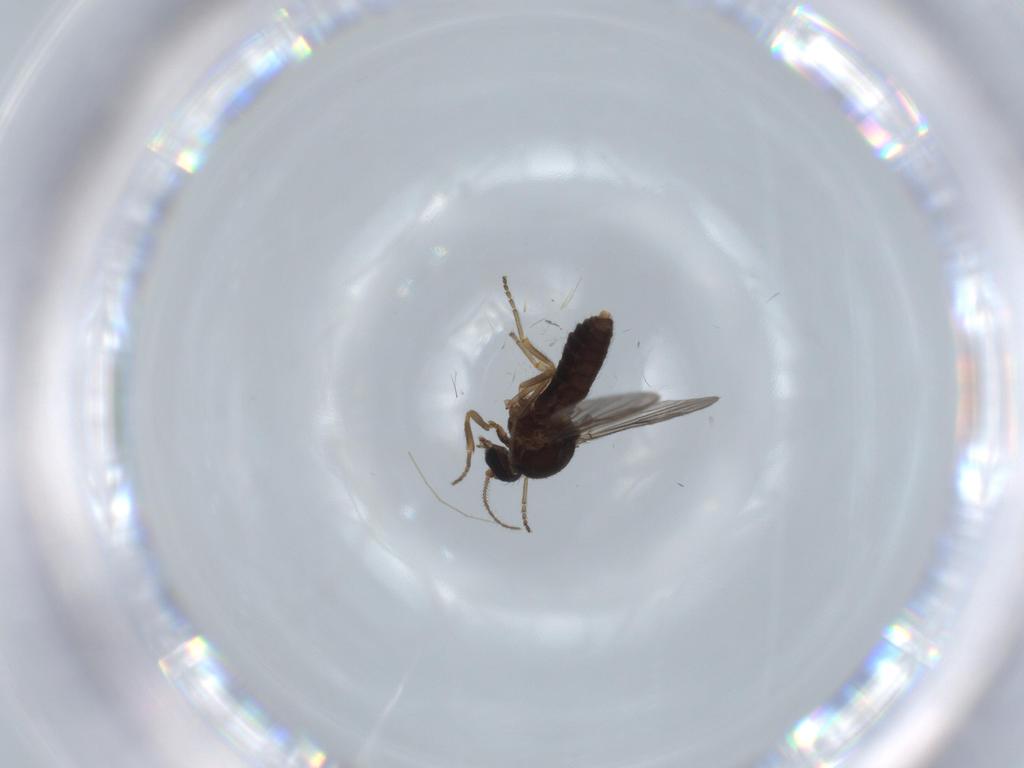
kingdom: Animalia
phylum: Arthropoda
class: Insecta
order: Diptera
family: Ceratopogonidae
